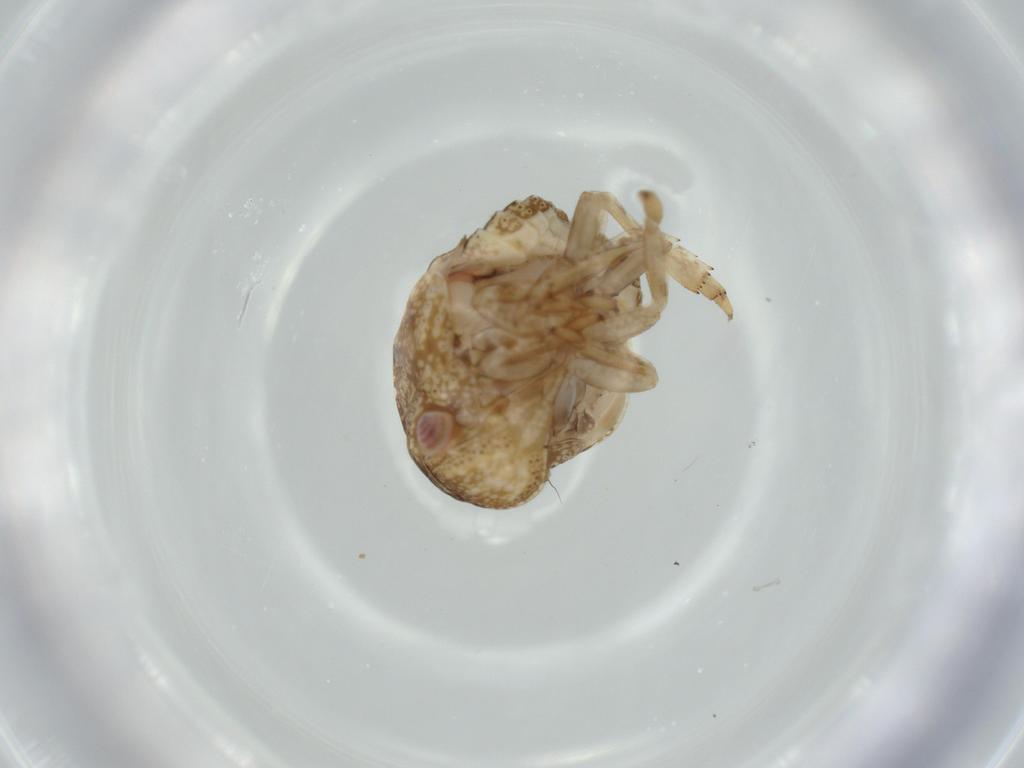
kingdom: Animalia
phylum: Arthropoda
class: Insecta
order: Hemiptera
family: Acanaloniidae
